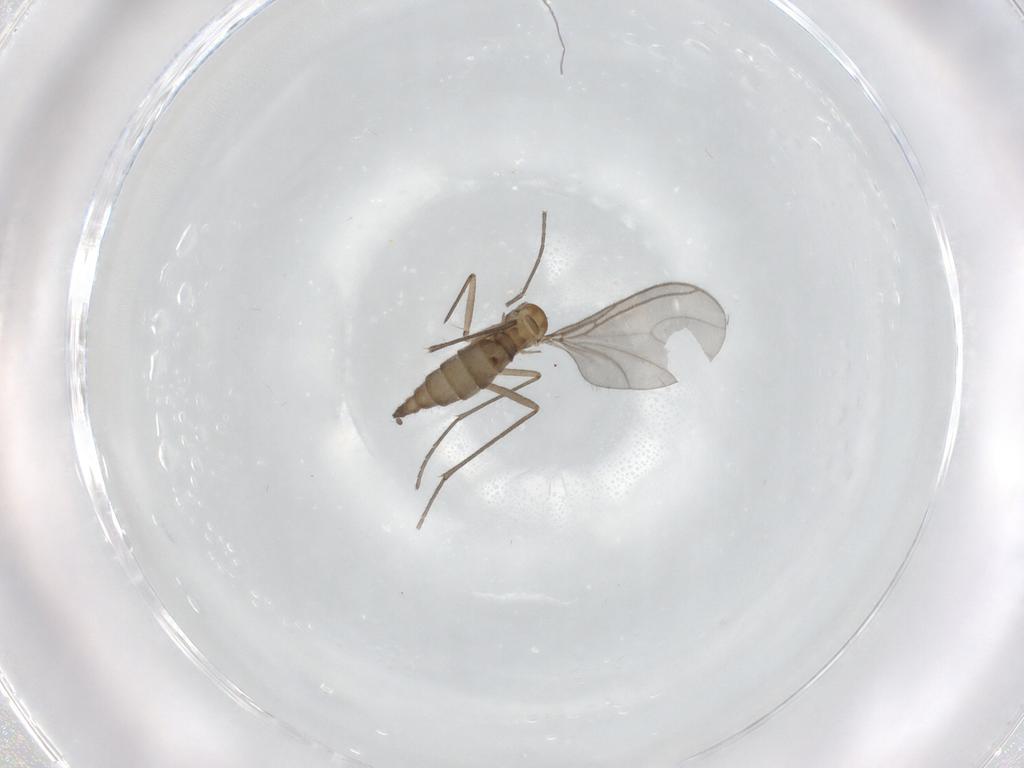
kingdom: Animalia
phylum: Arthropoda
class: Insecta
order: Diptera
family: Sciaridae
